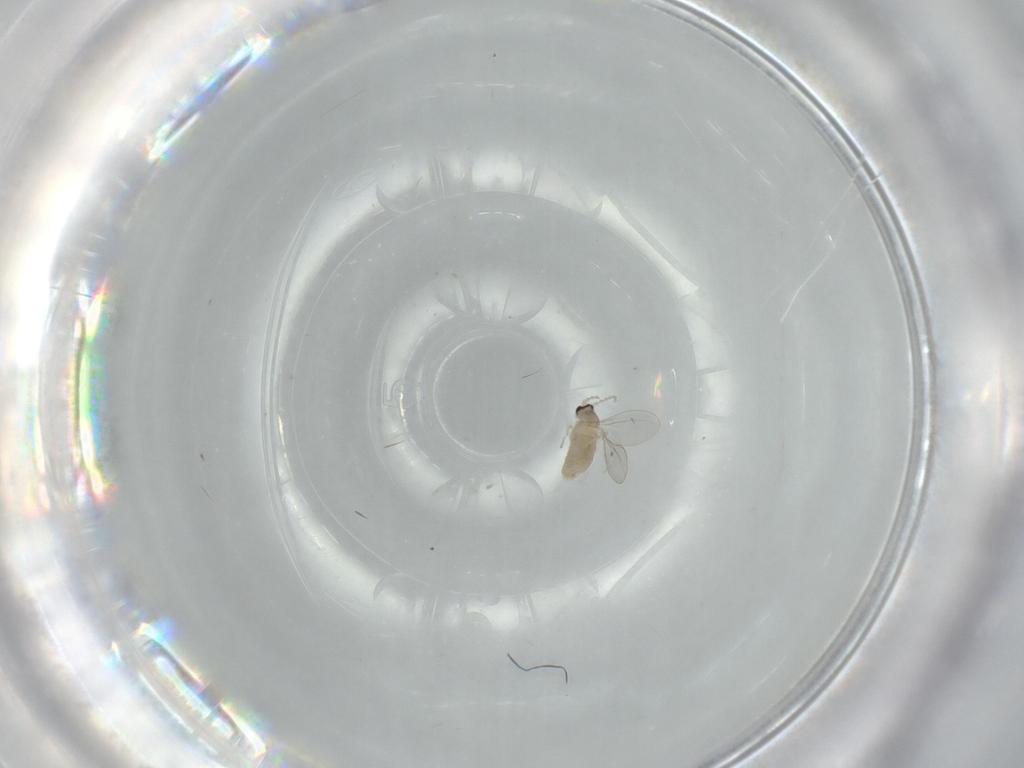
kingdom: Animalia
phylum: Arthropoda
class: Insecta
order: Diptera
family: Cecidomyiidae
